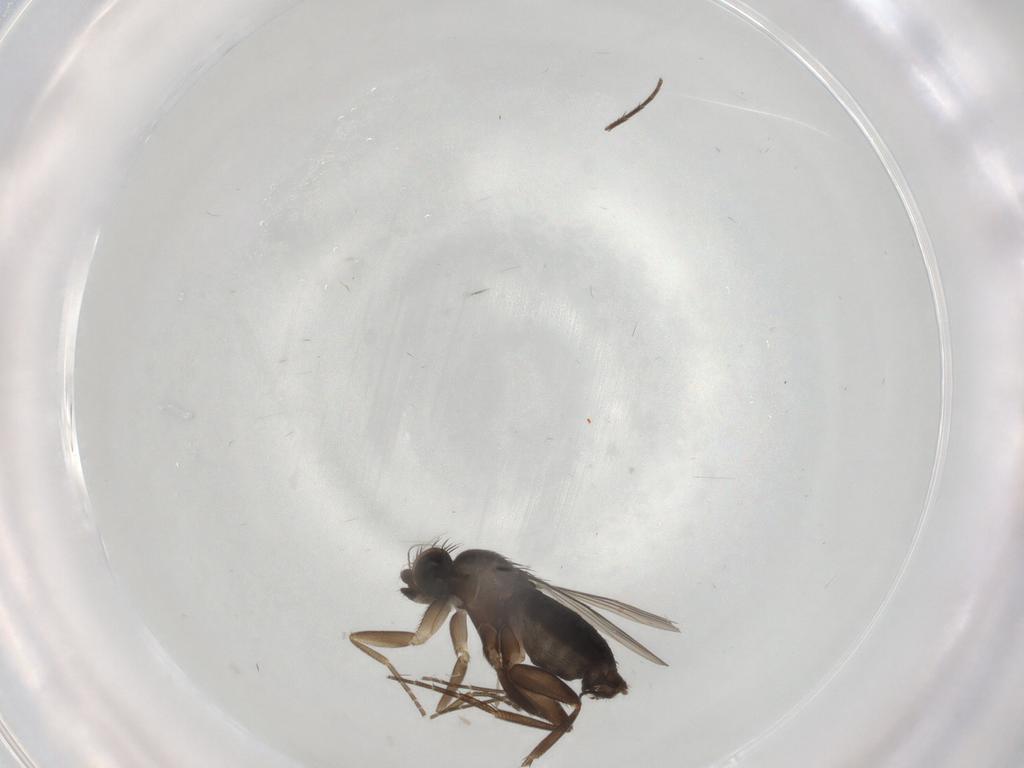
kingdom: Animalia
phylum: Arthropoda
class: Insecta
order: Diptera
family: Phoridae
